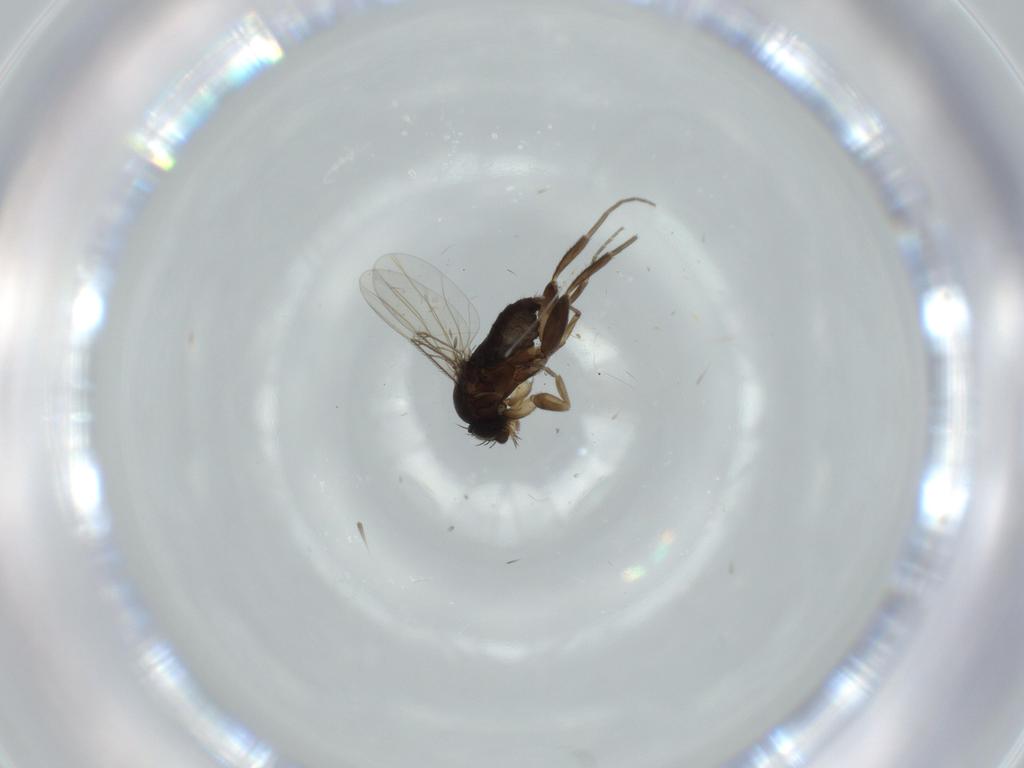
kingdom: Animalia
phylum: Arthropoda
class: Insecta
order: Diptera
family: Phoridae
